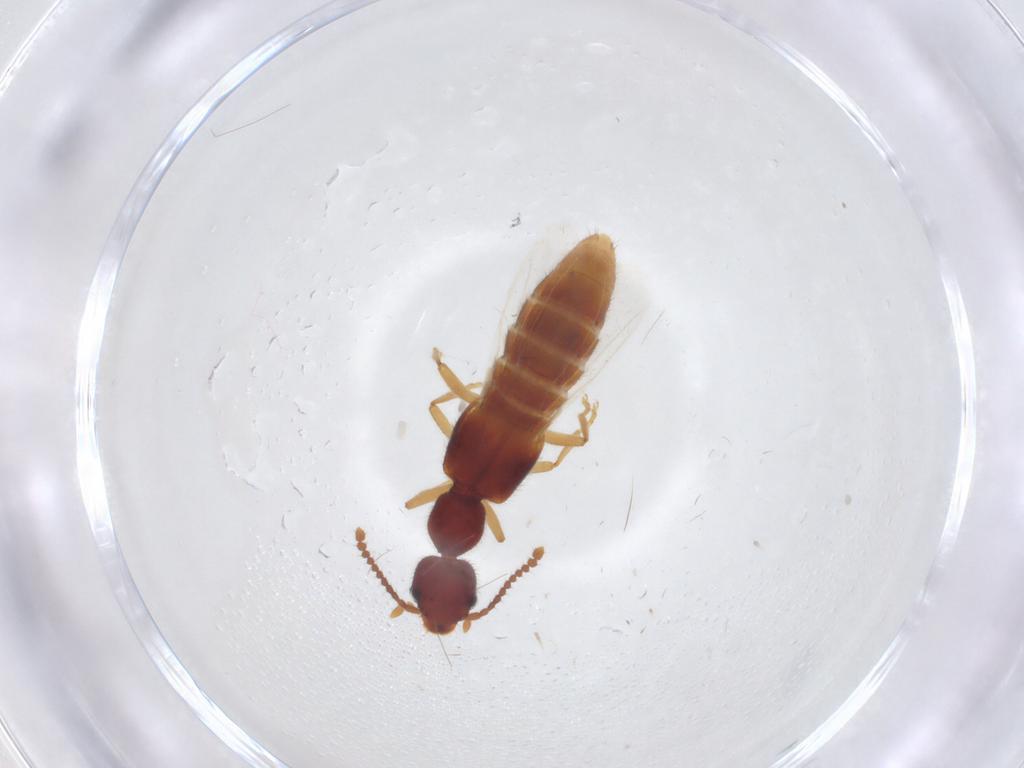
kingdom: Animalia
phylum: Arthropoda
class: Insecta
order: Coleoptera
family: Staphylinidae
